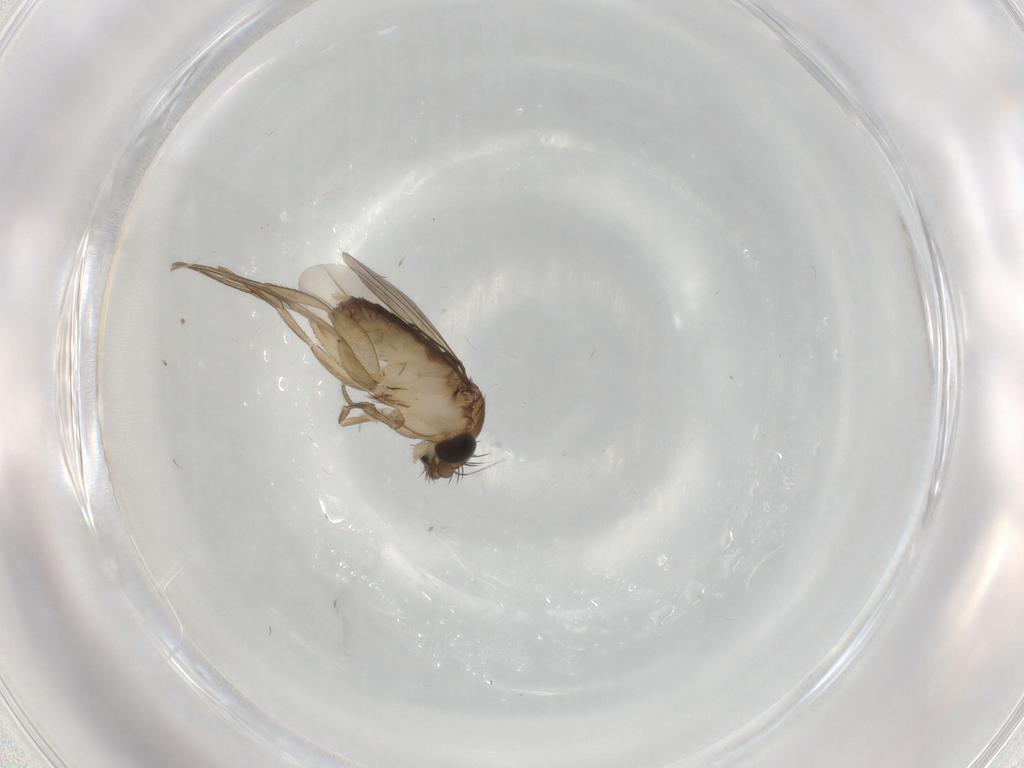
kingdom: Animalia
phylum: Arthropoda
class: Insecta
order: Diptera
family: Phoridae
